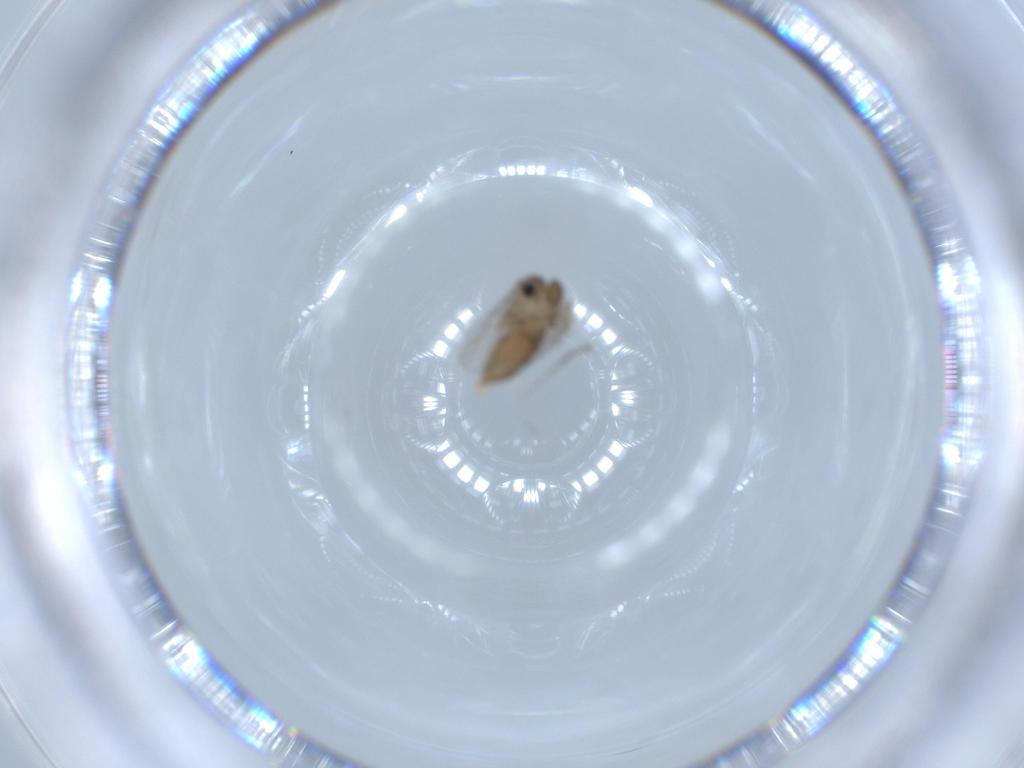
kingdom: Animalia
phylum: Arthropoda
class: Insecta
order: Diptera
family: Psychodidae
